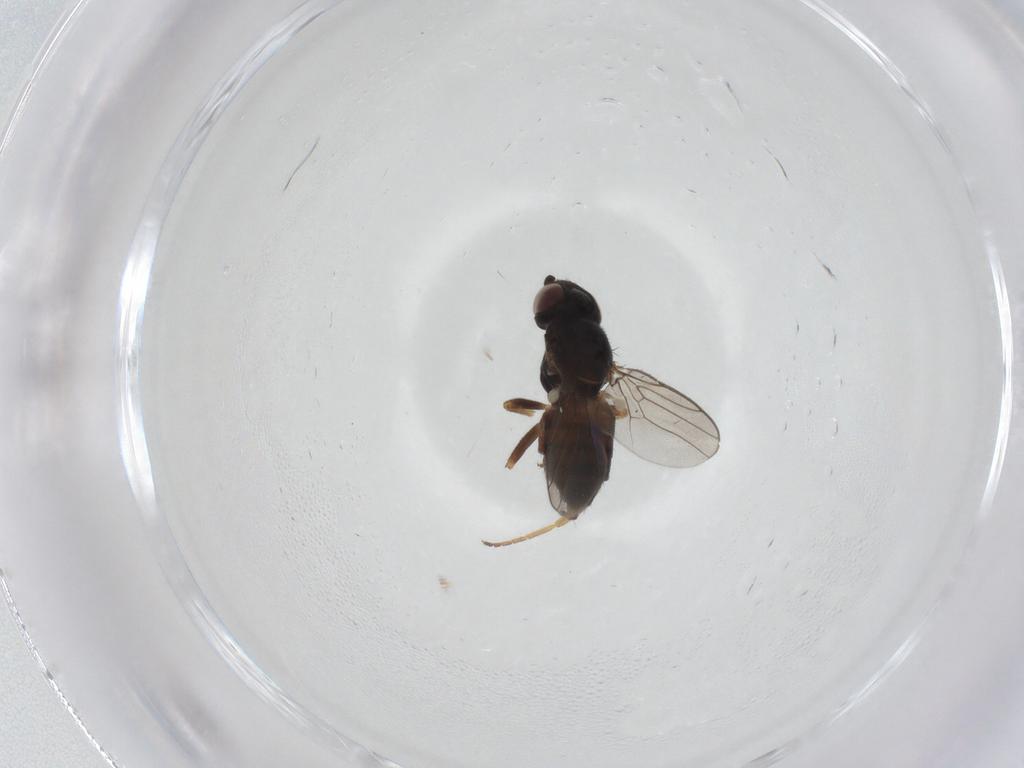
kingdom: Animalia
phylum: Arthropoda
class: Insecta
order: Diptera
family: Chloropidae
